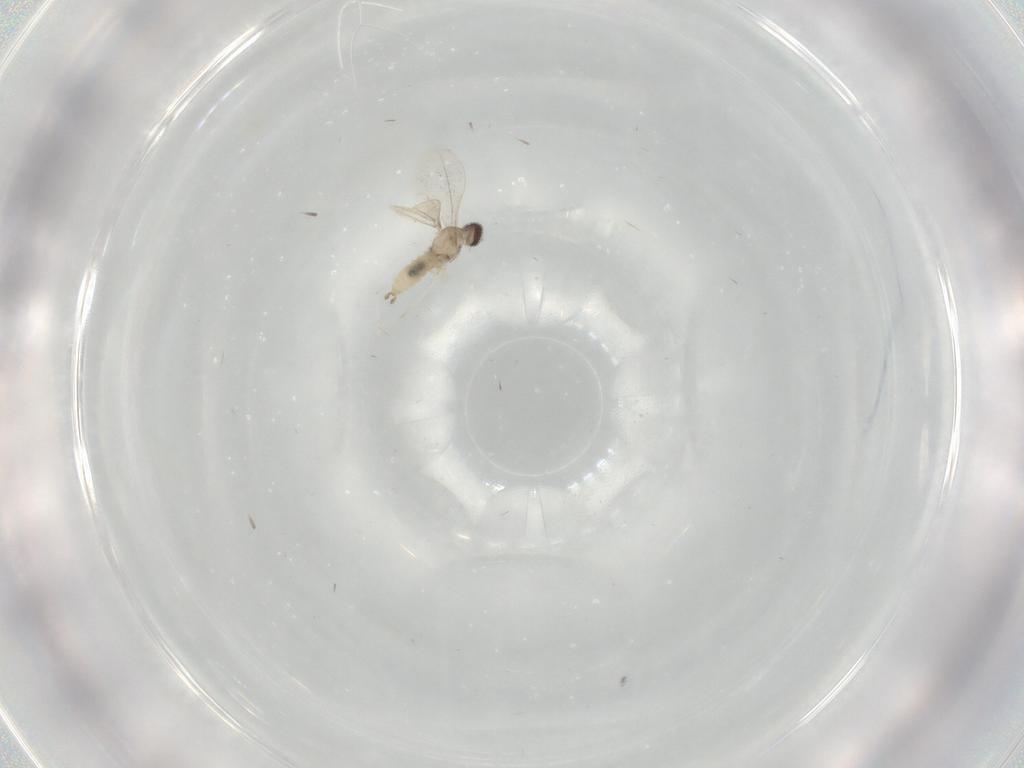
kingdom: Animalia
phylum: Arthropoda
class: Insecta
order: Diptera
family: Cecidomyiidae
